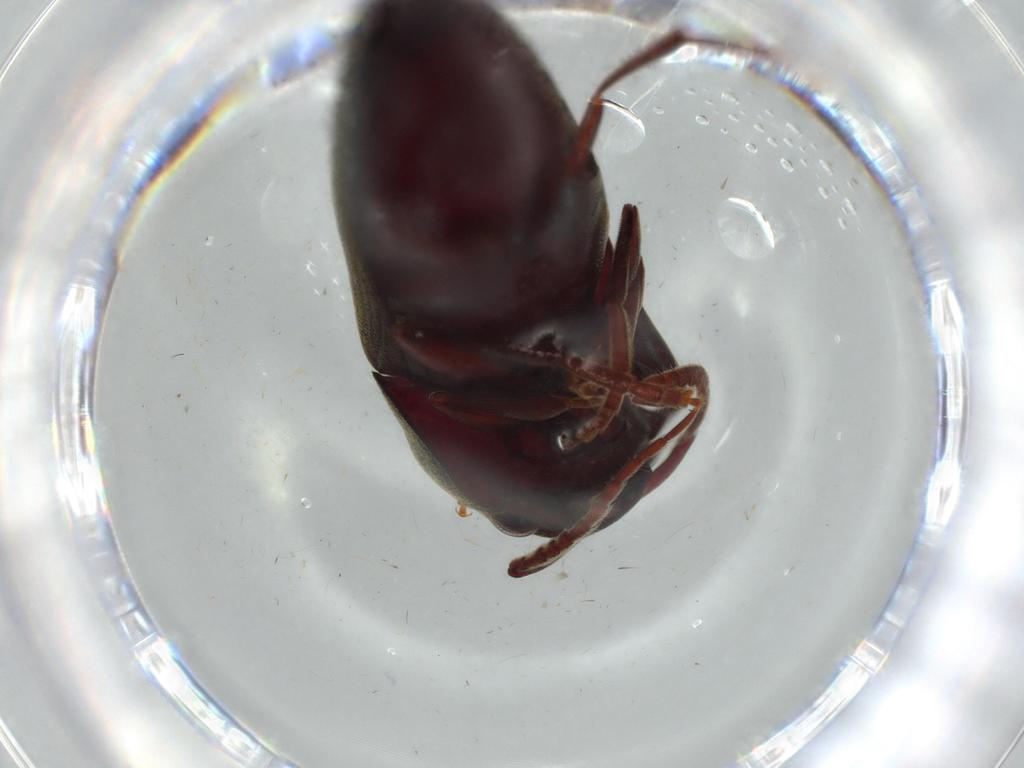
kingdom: Animalia
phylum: Arthropoda
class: Insecta
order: Coleoptera
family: Eucnemidae
